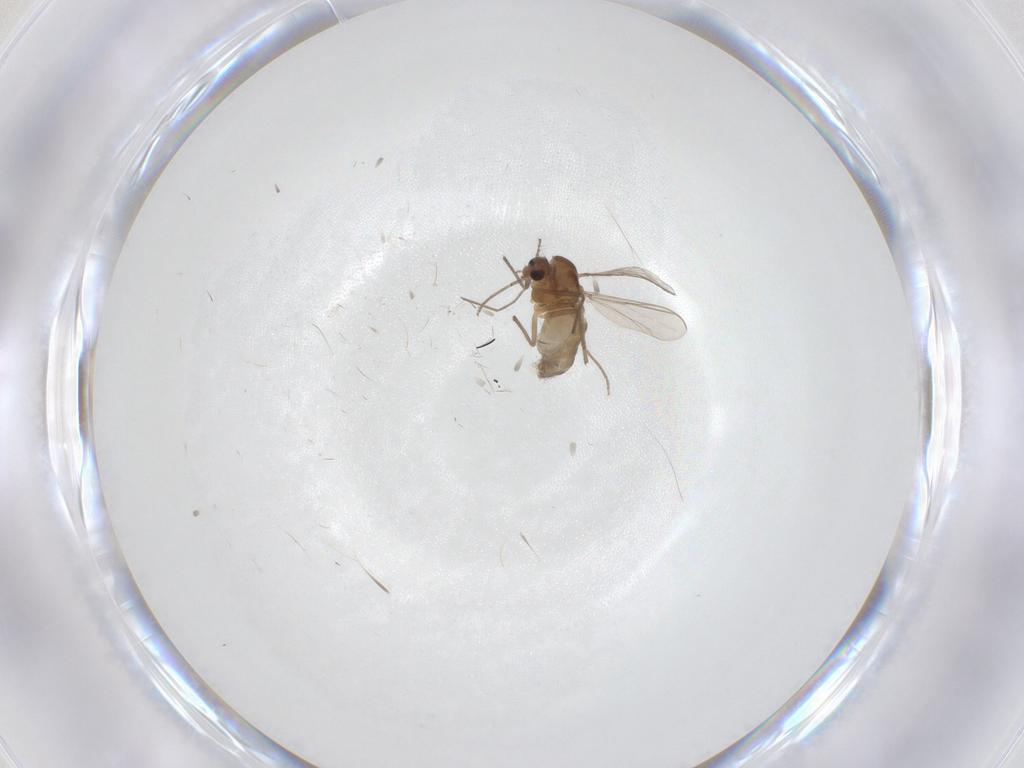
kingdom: Animalia
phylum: Arthropoda
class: Insecta
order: Diptera
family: Chironomidae
